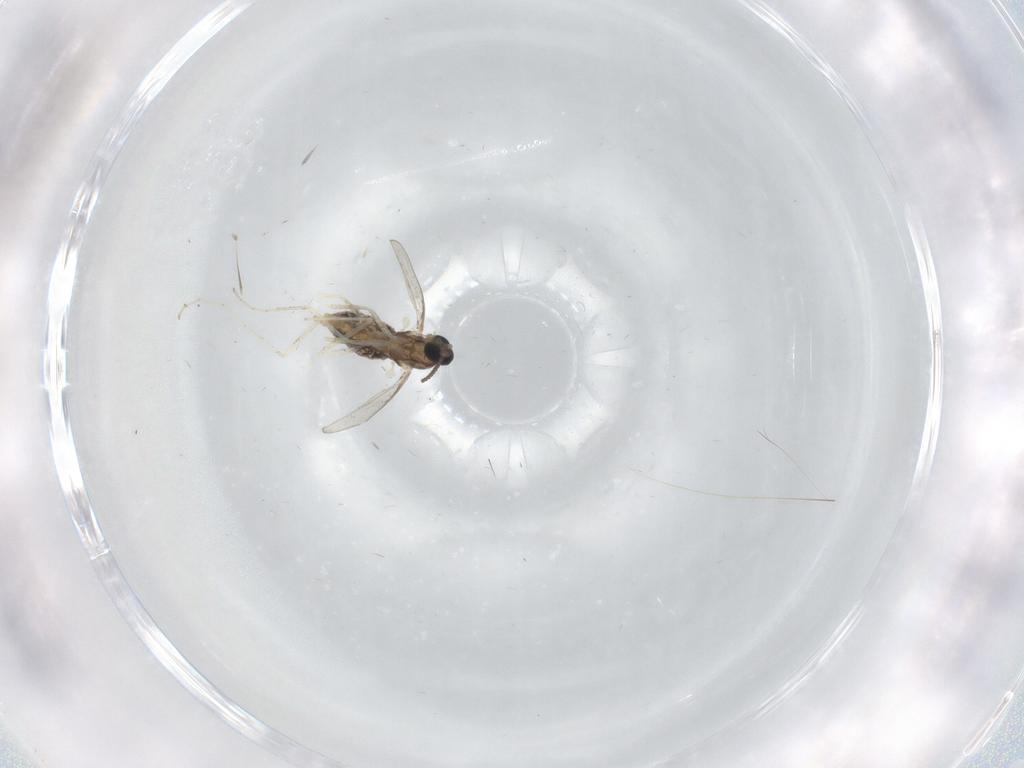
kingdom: Animalia
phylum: Arthropoda
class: Insecta
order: Diptera
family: Cecidomyiidae
